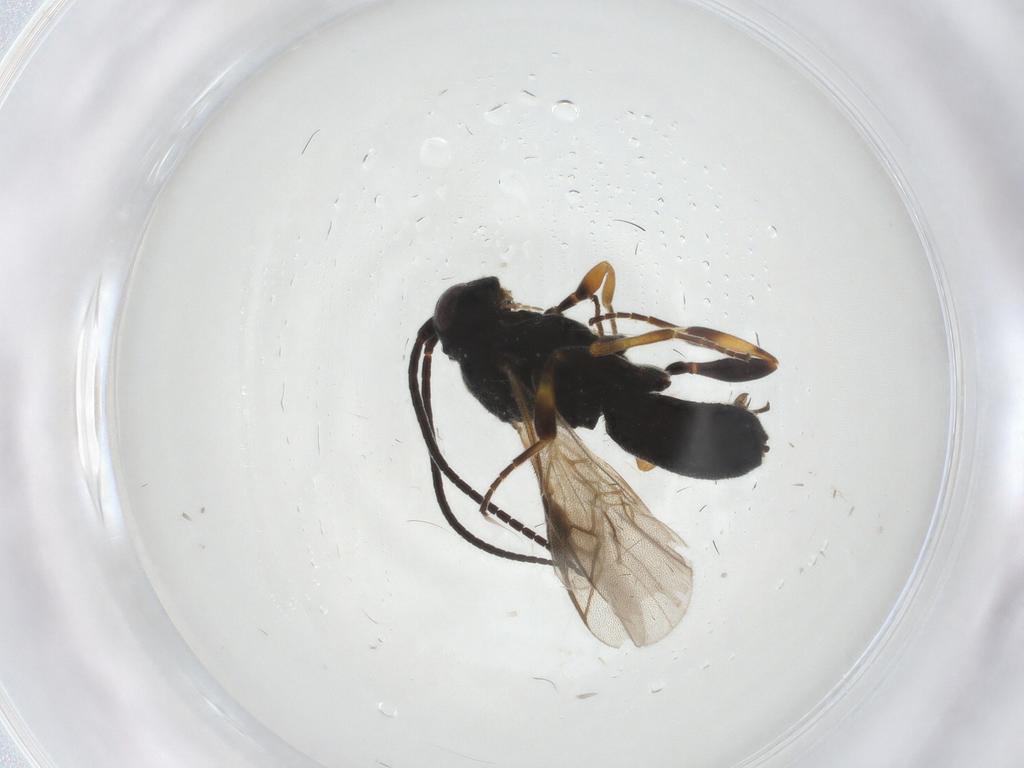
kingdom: Animalia
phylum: Arthropoda
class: Insecta
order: Hymenoptera
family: Braconidae
